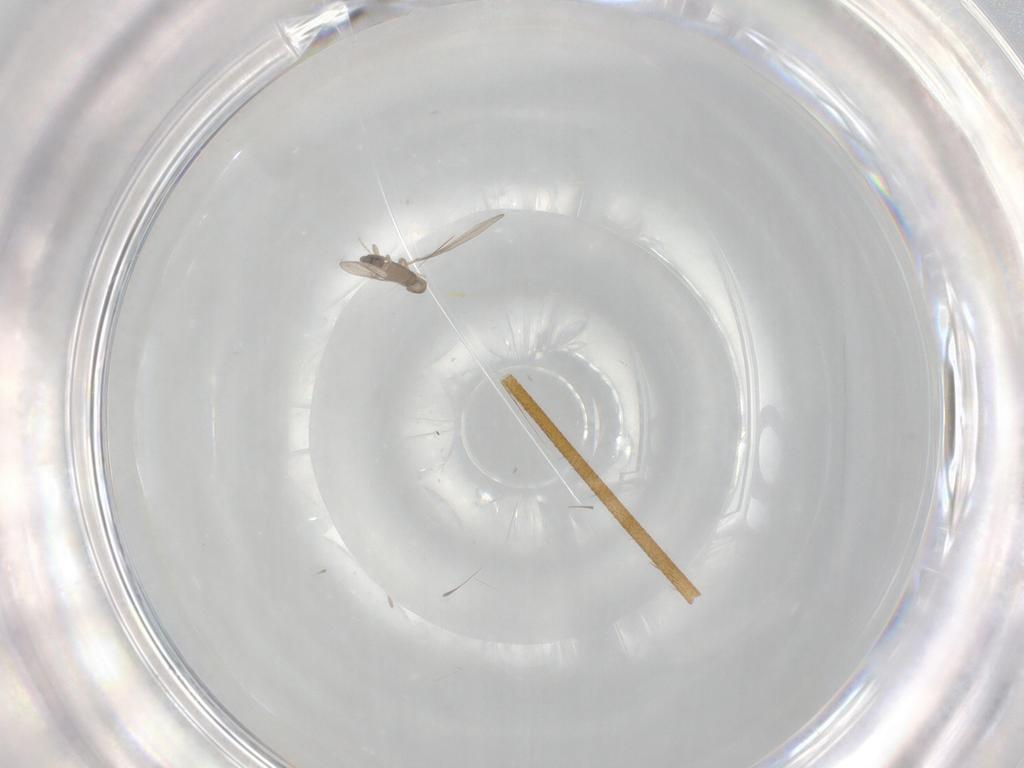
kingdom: Animalia
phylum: Arthropoda
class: Insecta
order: Diptera
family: Cecidomyiidae
